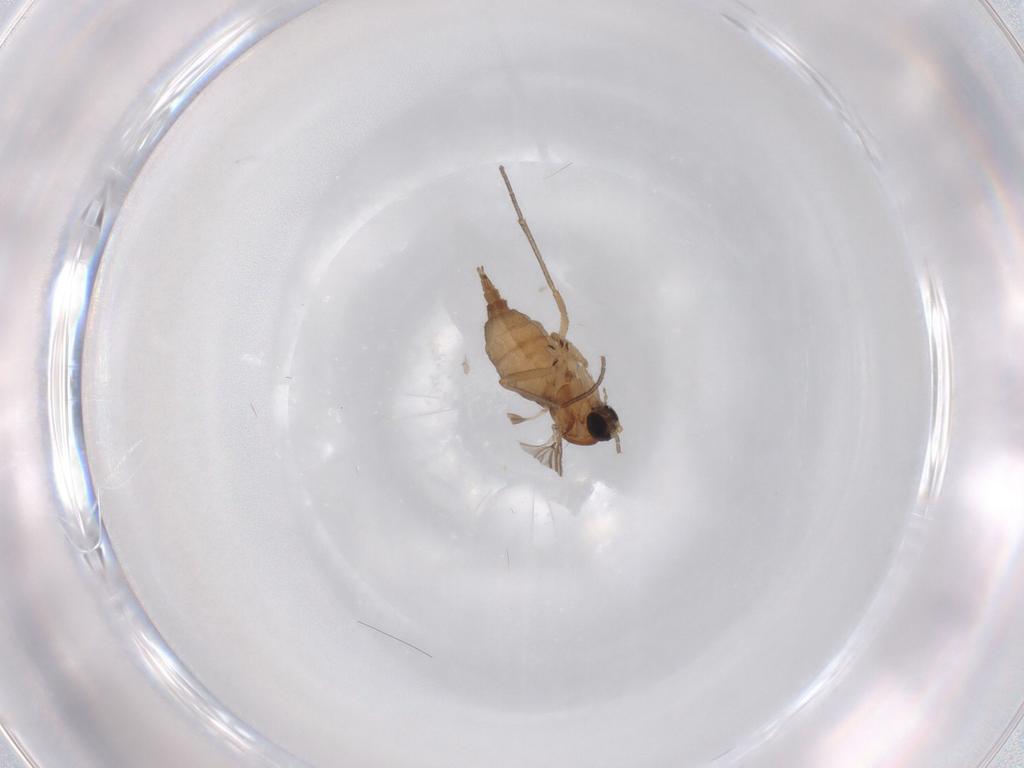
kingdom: Animalia
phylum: Arthropoda
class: Insecta
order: Diptera
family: Sciaridae
